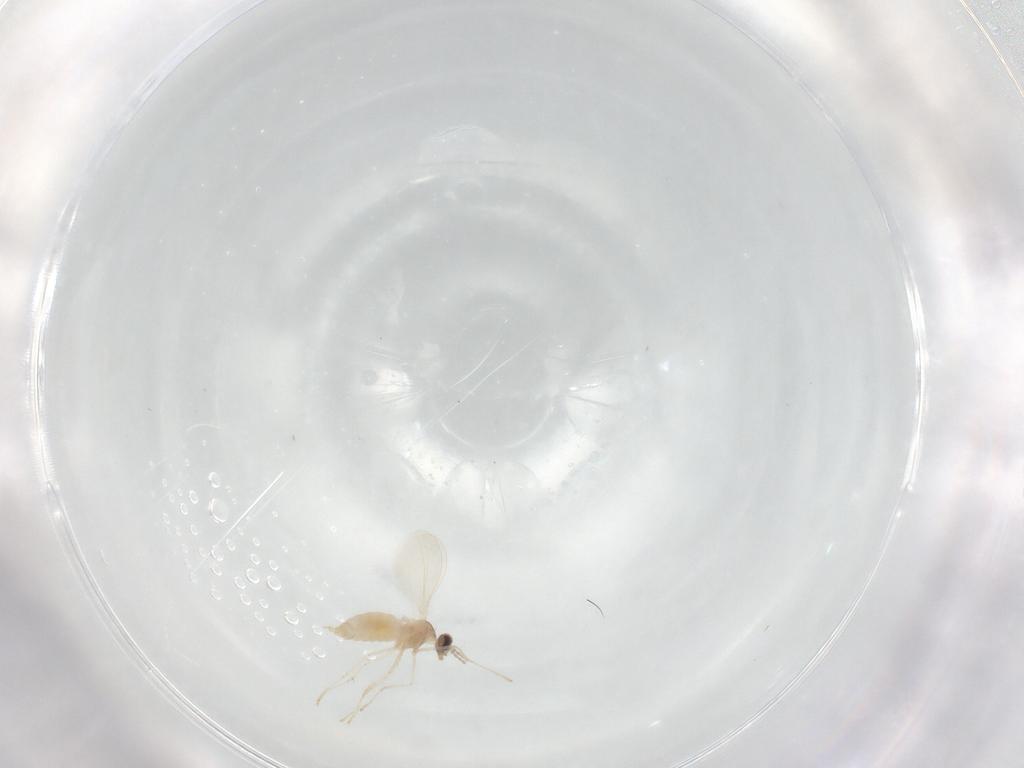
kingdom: Animalia
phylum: Arthropoda
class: Insecta
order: Diptera
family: Cecidomyiidae
